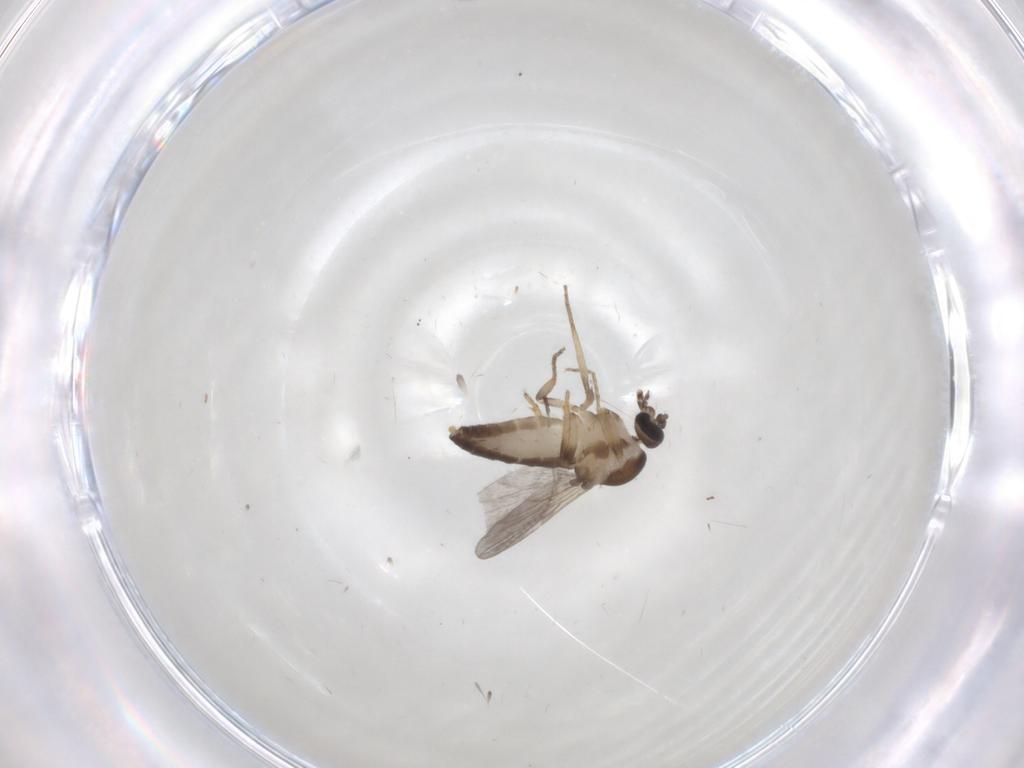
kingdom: Animalia
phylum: Arthropoda
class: Insecta
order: Diptera
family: Ceratopogonidae
